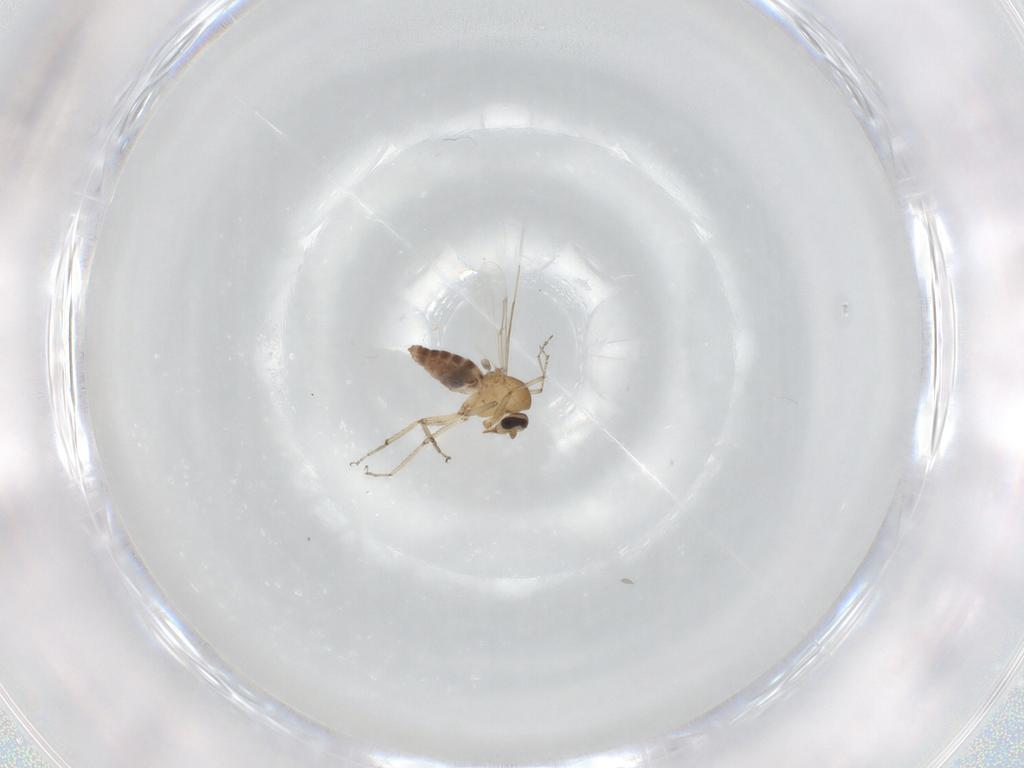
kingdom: Animalia
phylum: Arthropoda
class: Insecta
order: Diptera
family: Ceratopogonidae
